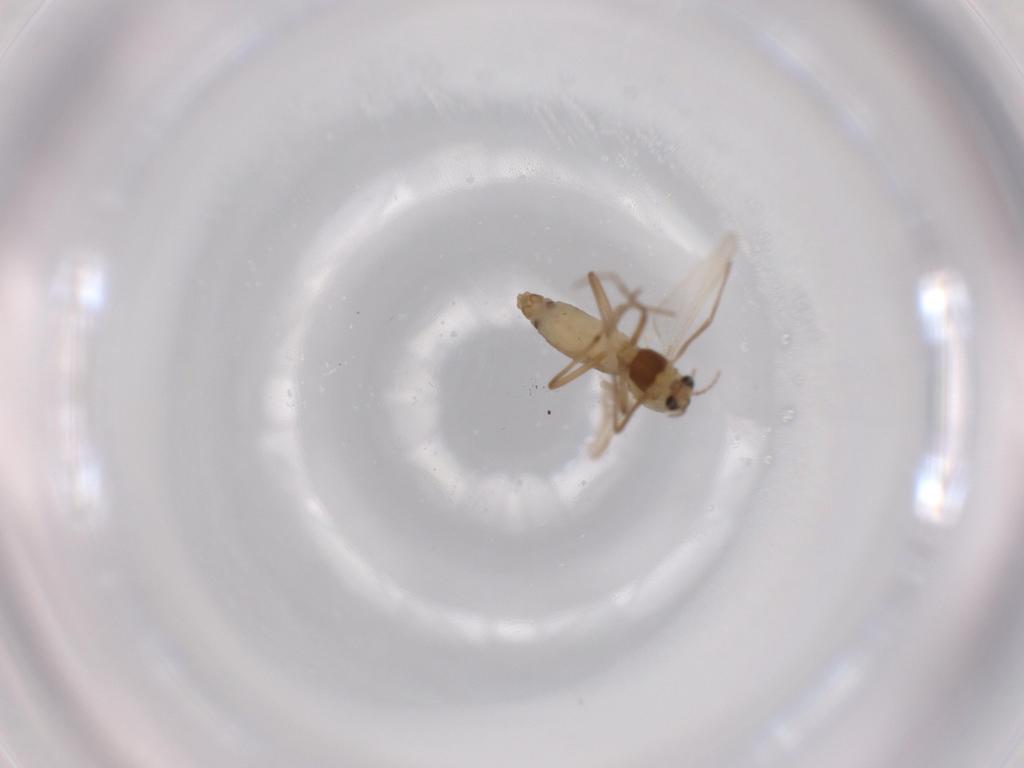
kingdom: Animalia
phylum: Arthropoda
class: Insecta
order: Diptera
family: Chironomidae
